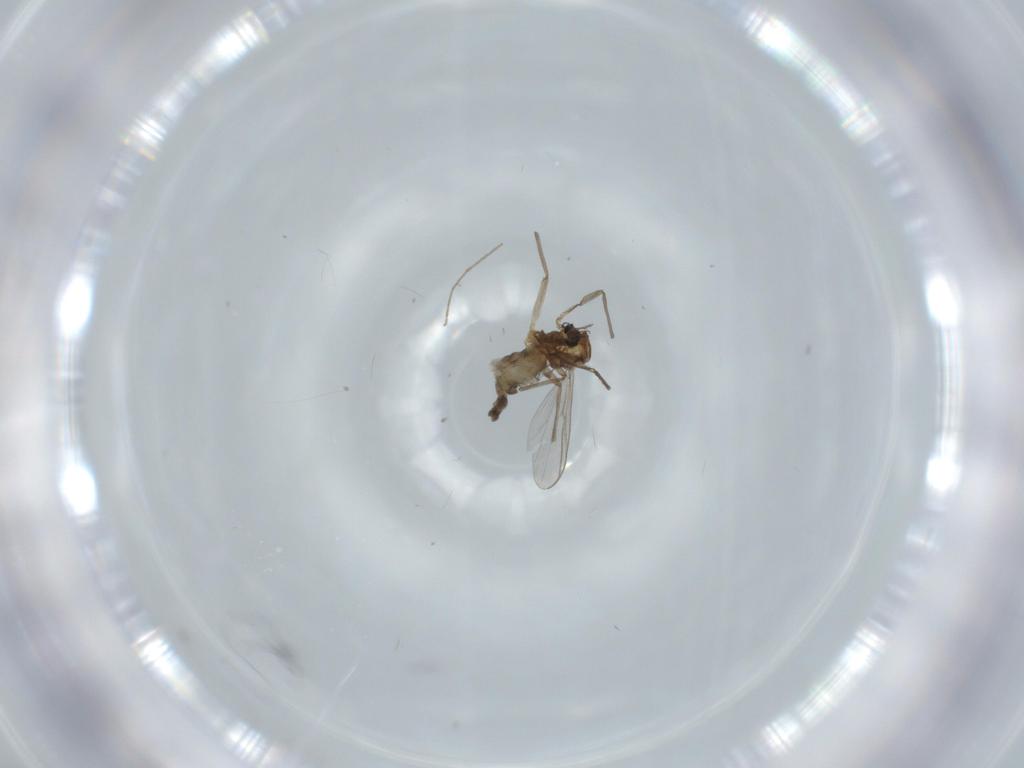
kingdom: Animalia
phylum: Arthropoda
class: Insecta
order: Diptera
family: Chironomidae
